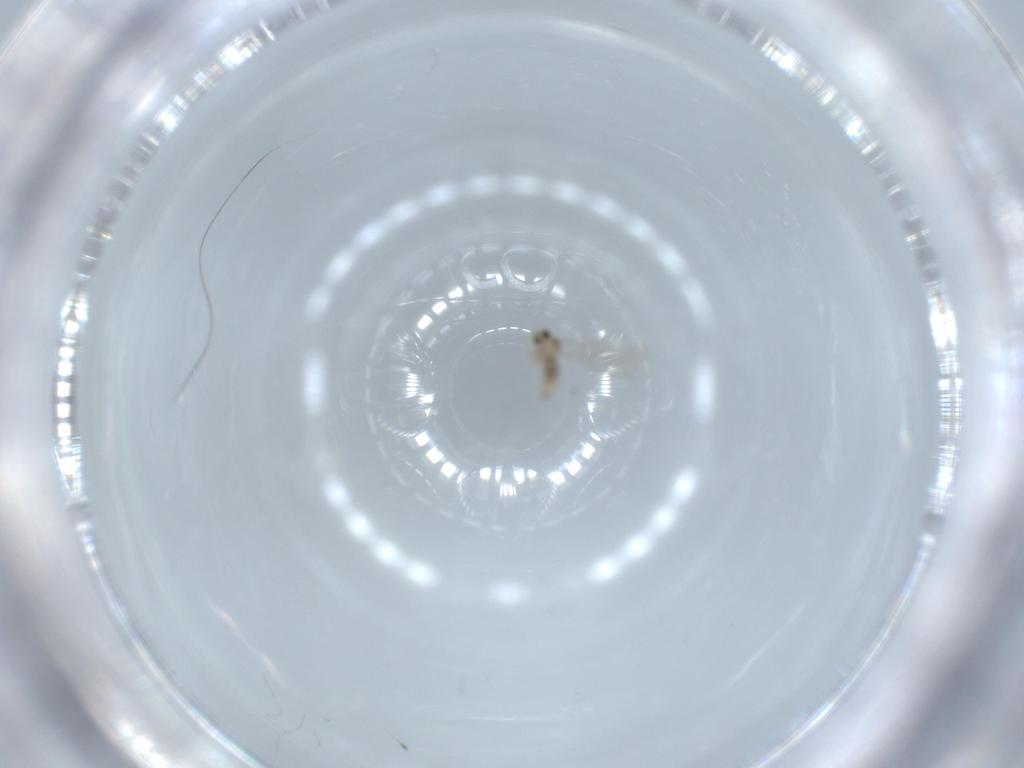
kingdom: Animalia
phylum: Arthropoda
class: Insecta
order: Diptera
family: Cecidomyiidae
